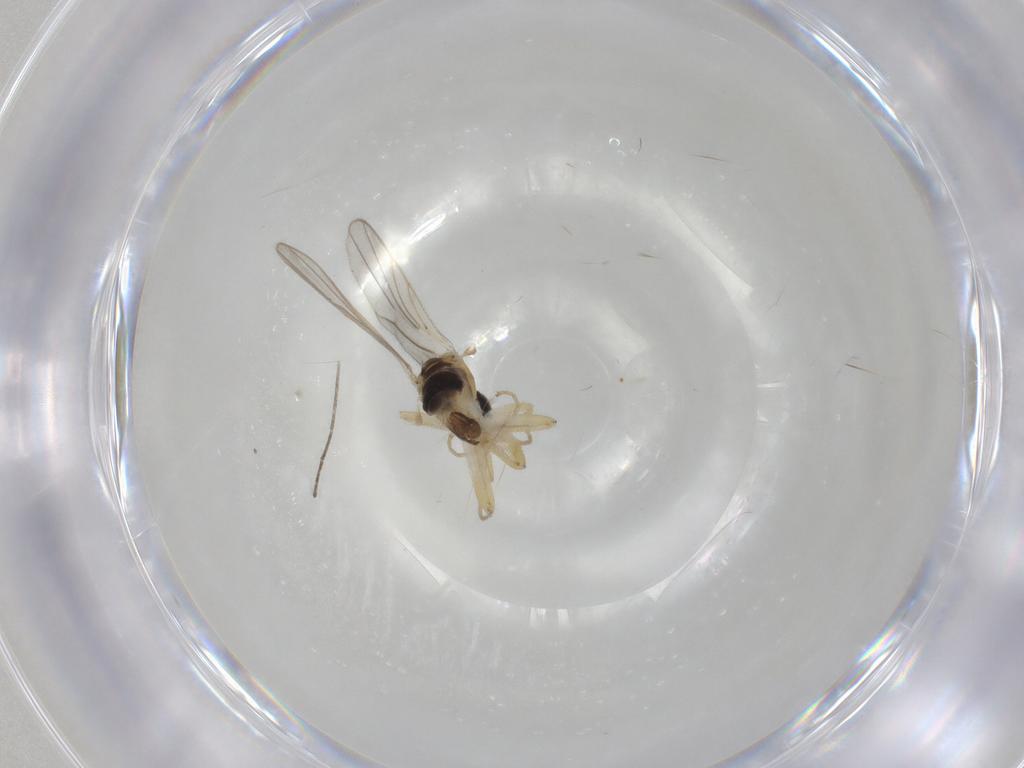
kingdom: Animalia
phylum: Arthropoda
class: Insecta
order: Diptera
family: Hybotidae
